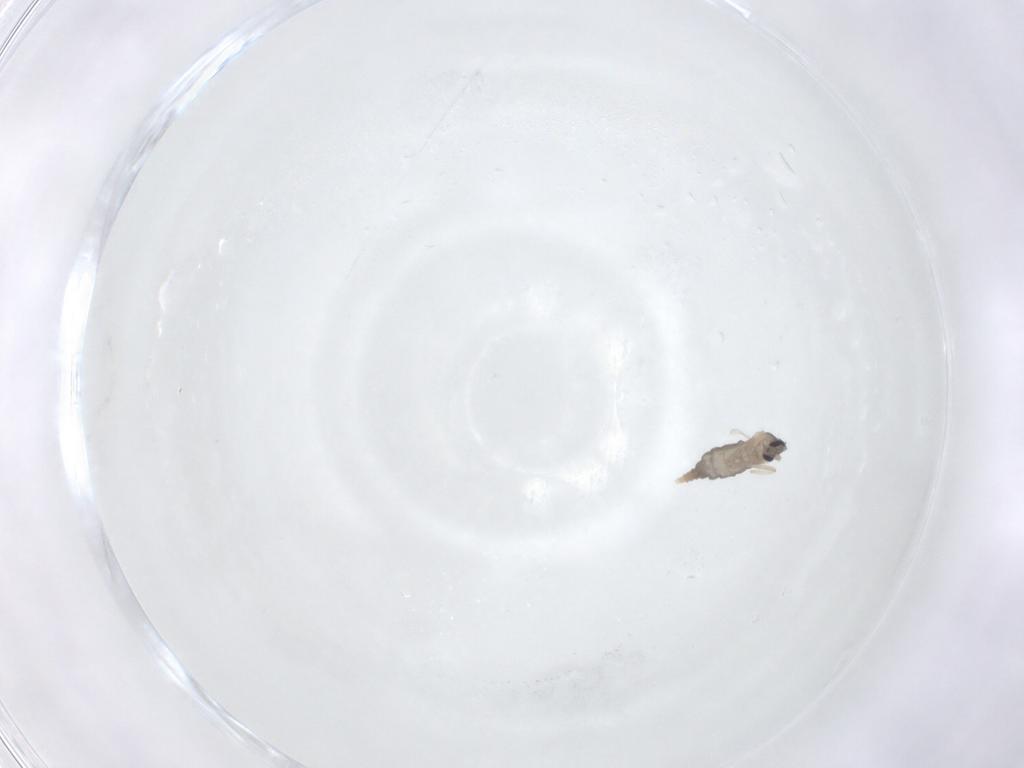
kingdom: Animalia
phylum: Arthropoda
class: Insecta
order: Diptera
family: Cecidomyiidae
